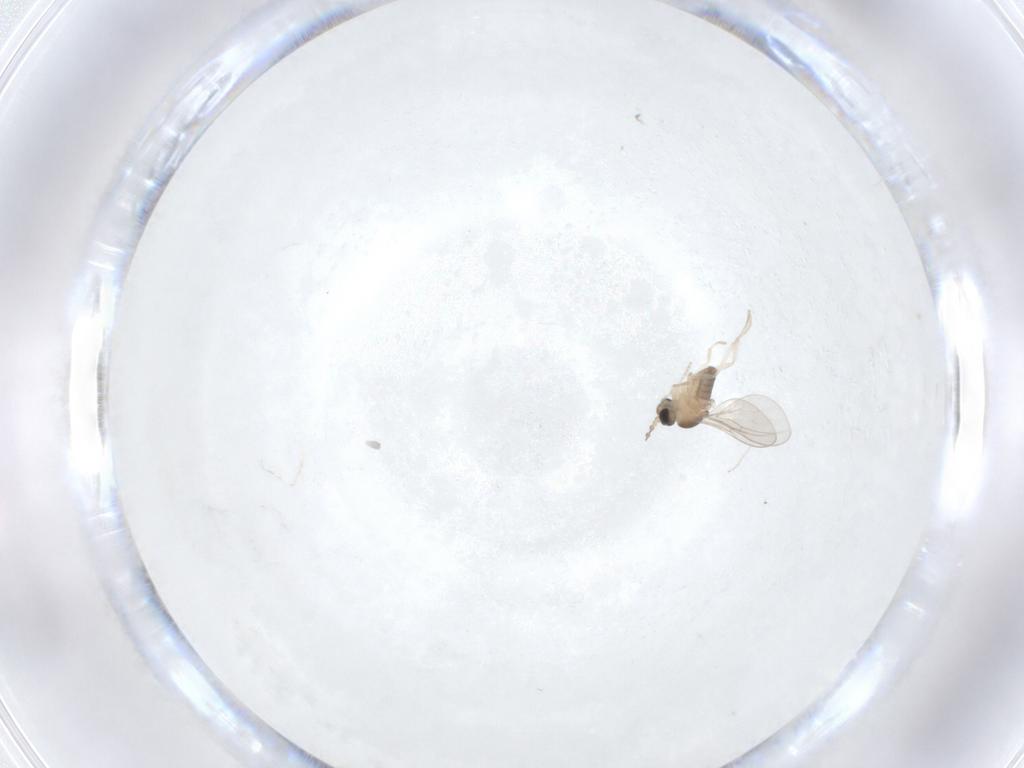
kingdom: Animalia
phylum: Arthropoda
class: Insecta
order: Diptera
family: Cecidomyiidae
